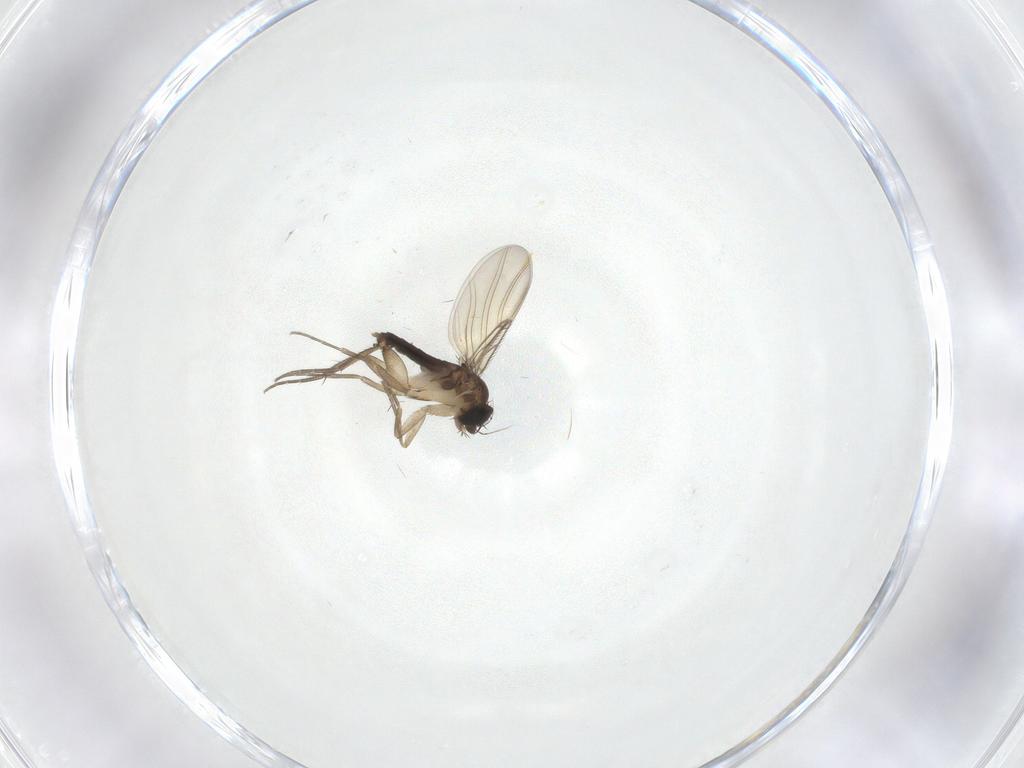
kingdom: Animalia
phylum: Arthropoda
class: Insecta
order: Diptera
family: Phoridae
